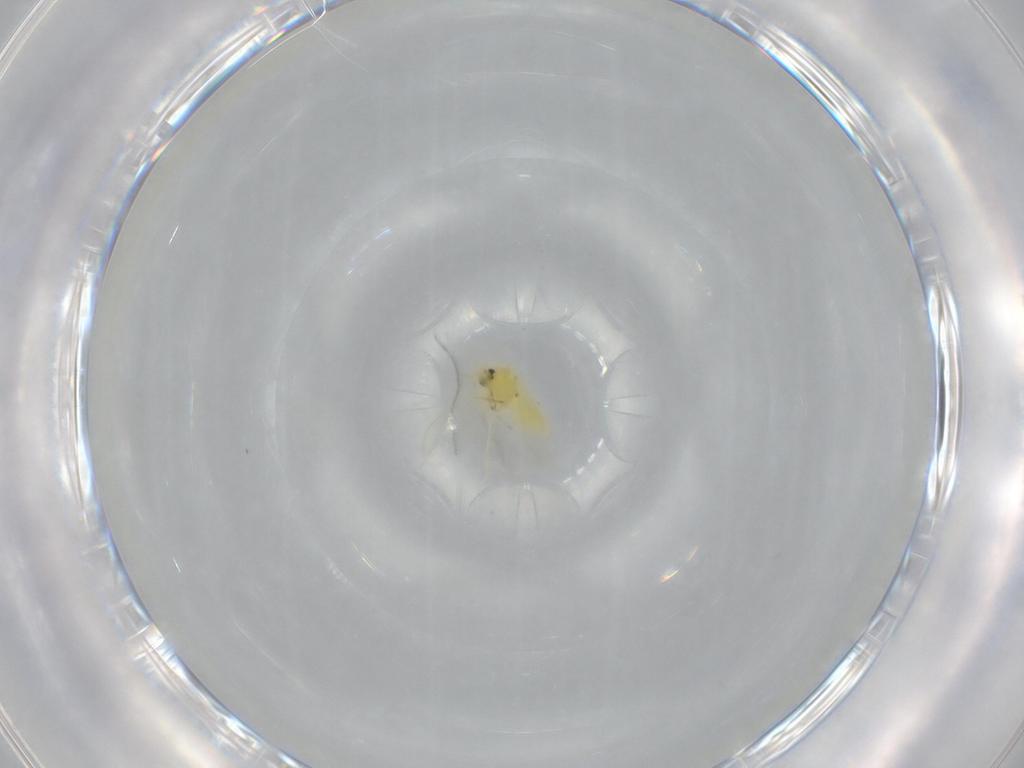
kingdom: Animalia
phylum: Arthropoda
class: Insecta
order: Hemiptera
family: Aleyrodidae
